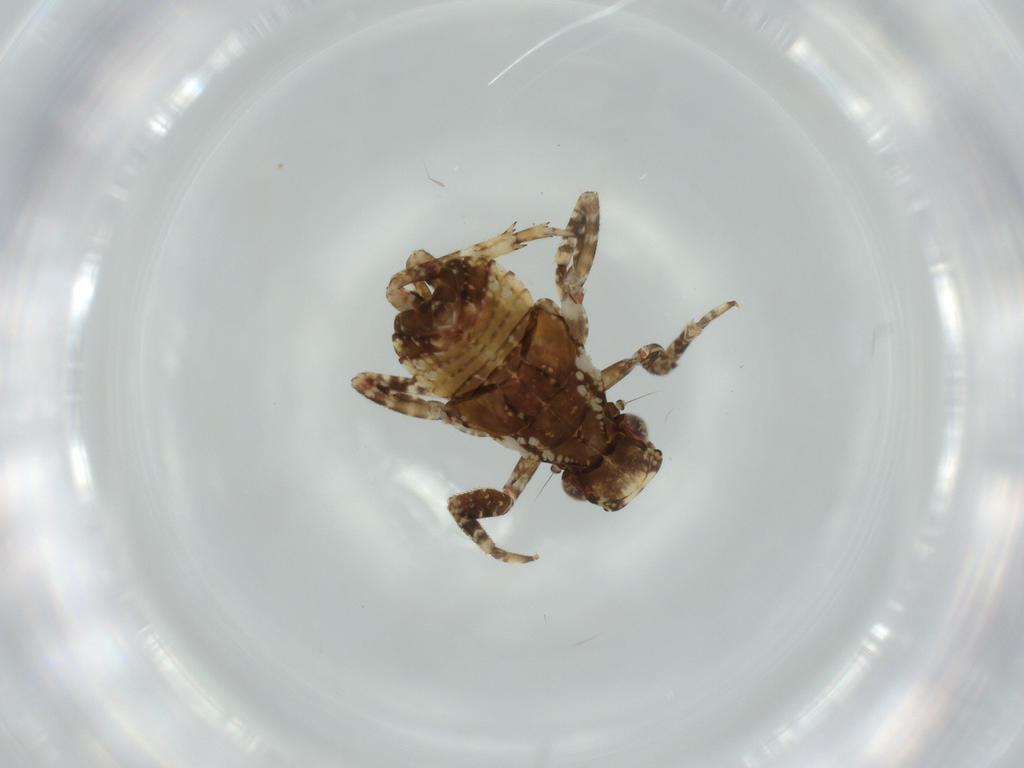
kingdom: Animalia
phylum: Arthropoda
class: Insecta
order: Hemiptera
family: Fulgoridae
